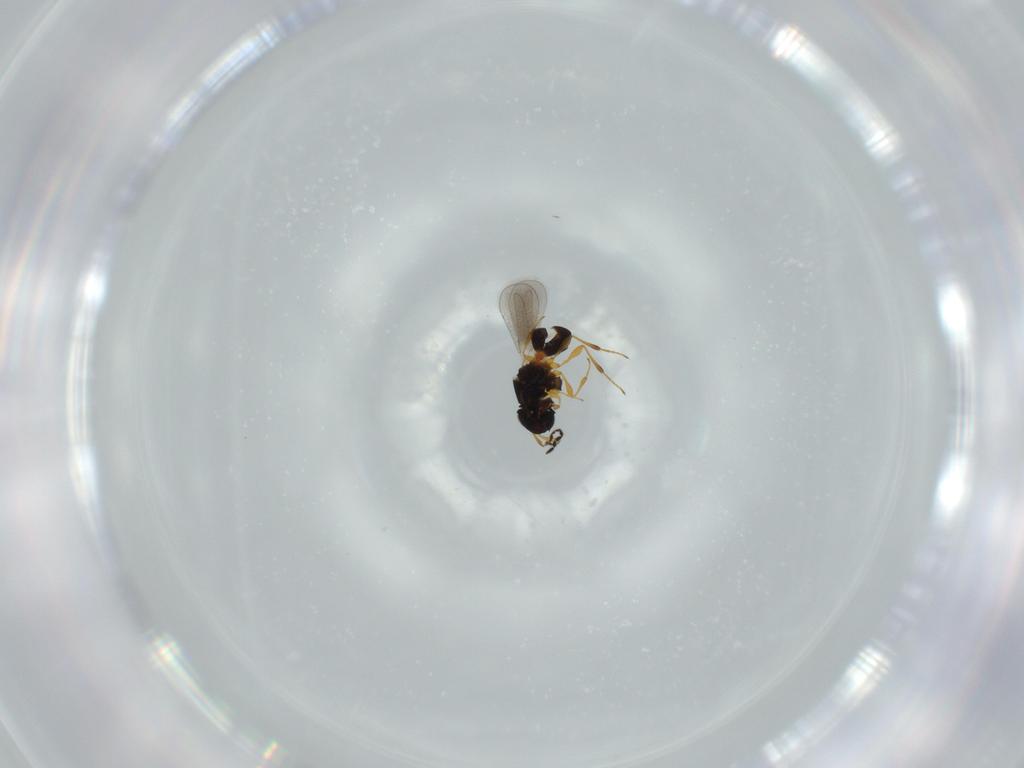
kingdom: Animalia
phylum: Arthropoda
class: Insecta
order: Hymenoptera
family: Platygastridae
